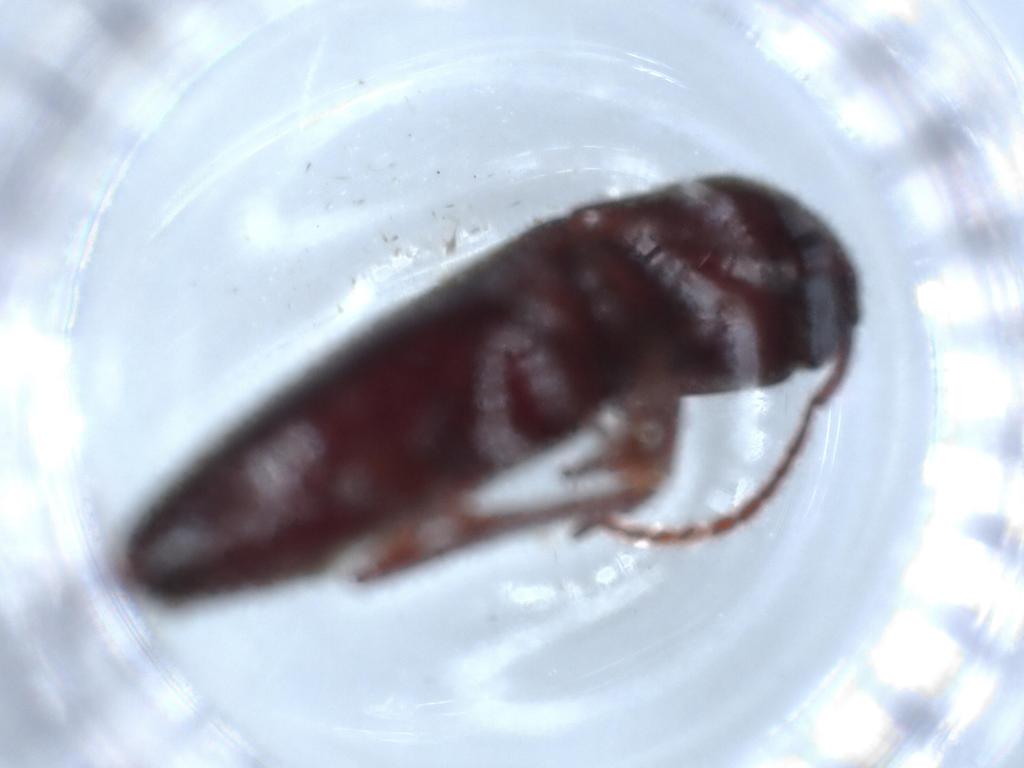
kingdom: Animalia
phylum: Arthropoda
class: Insecta
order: Coleoptera
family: Eucnemidae
